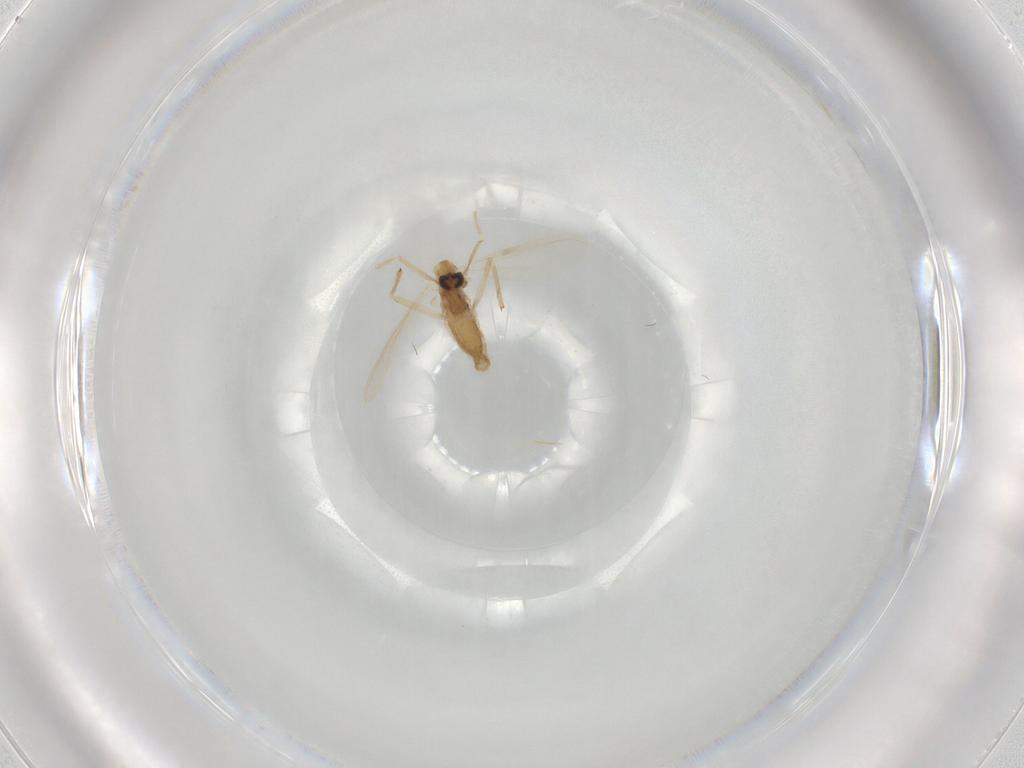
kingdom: Animalia
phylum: Arthropoda
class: Insecta
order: Diptera
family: Chironomidae
